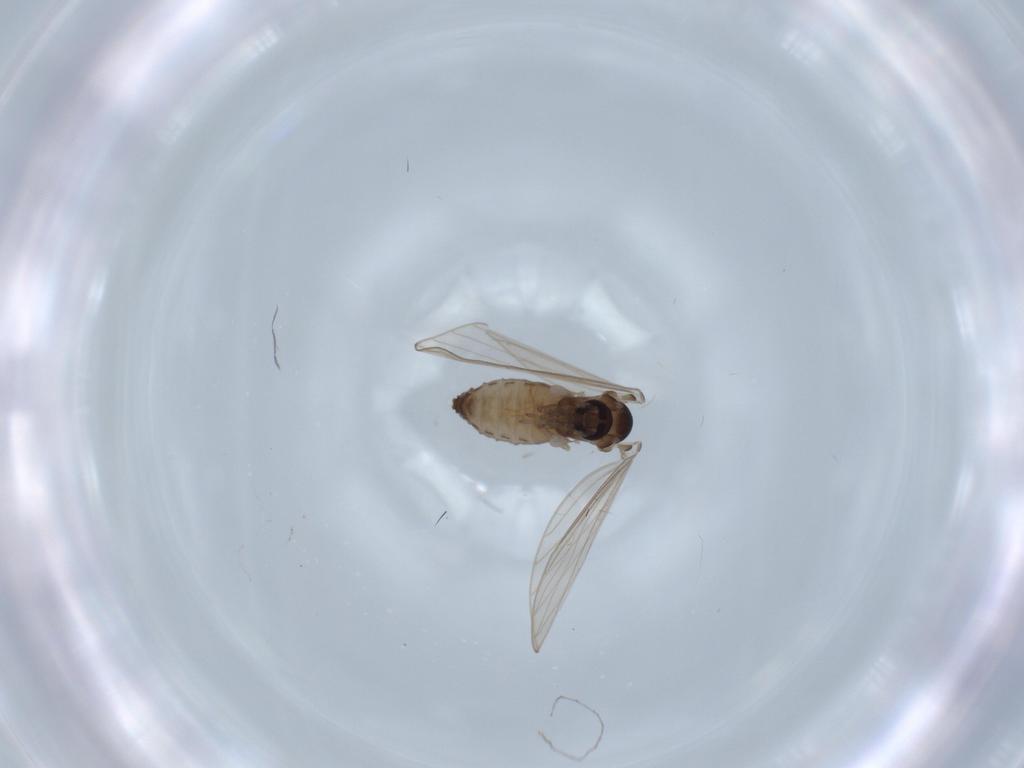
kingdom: Animalia
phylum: Arthropoda
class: Insecta
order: Diptera
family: Psychodidae
